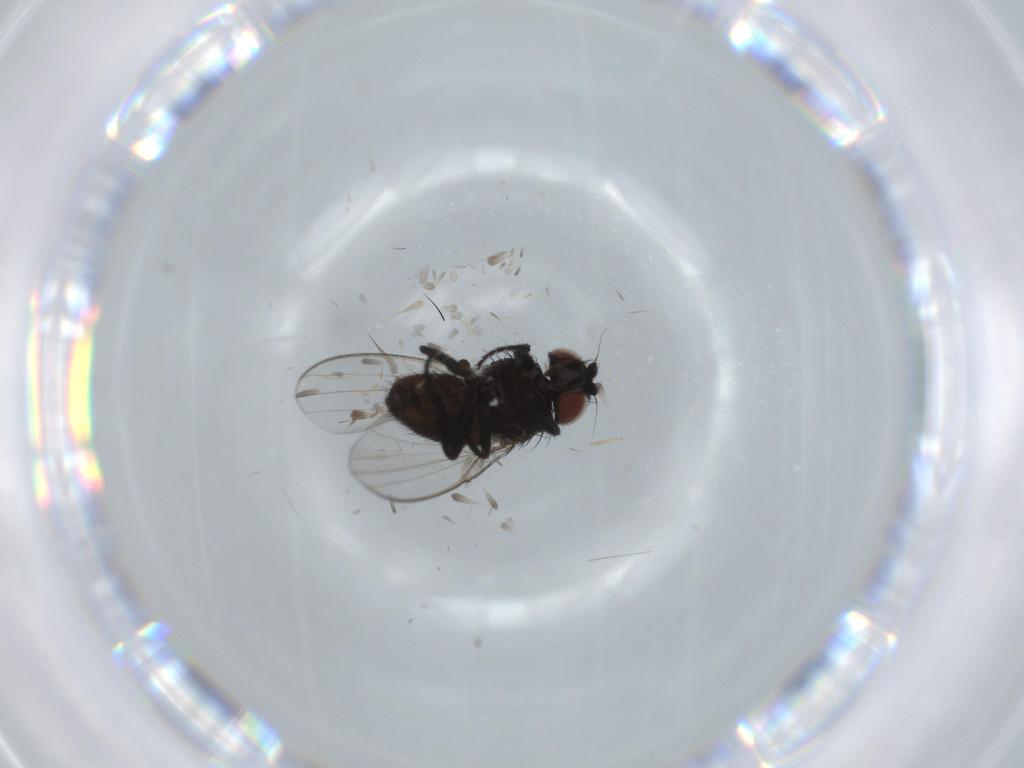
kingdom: Animalia
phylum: Arthropoda
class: Insecta
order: Diptera
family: Milichiidae
